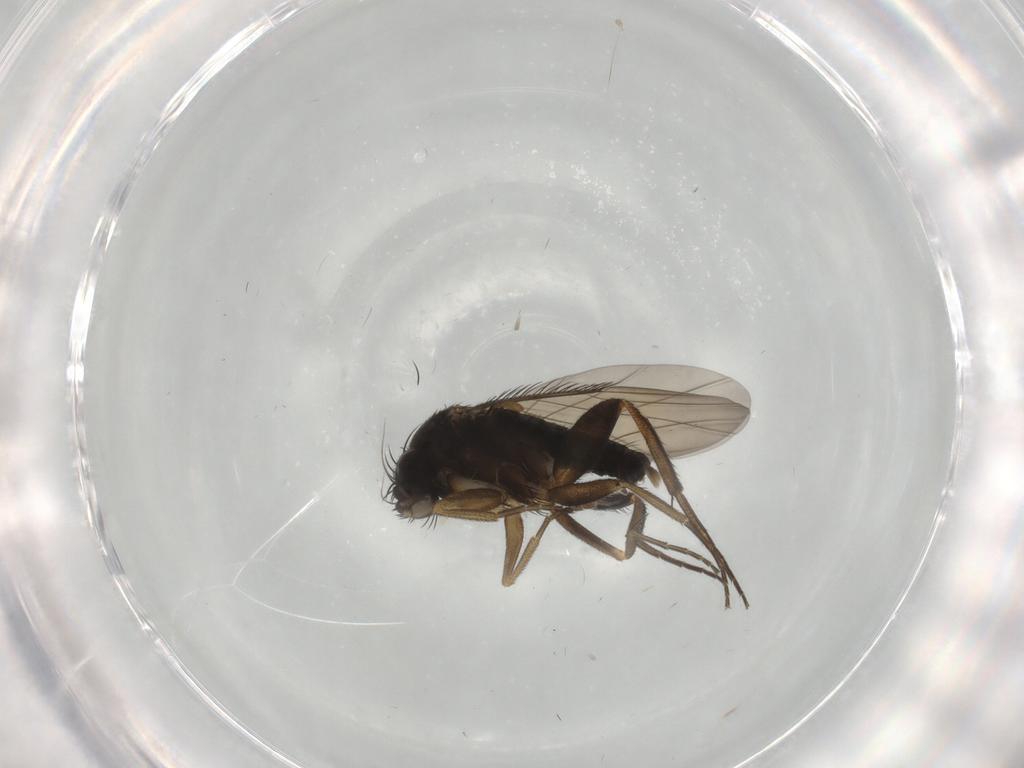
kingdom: Animalia
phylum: Arthropoda
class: Insecta
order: Diptera
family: Phoridae
